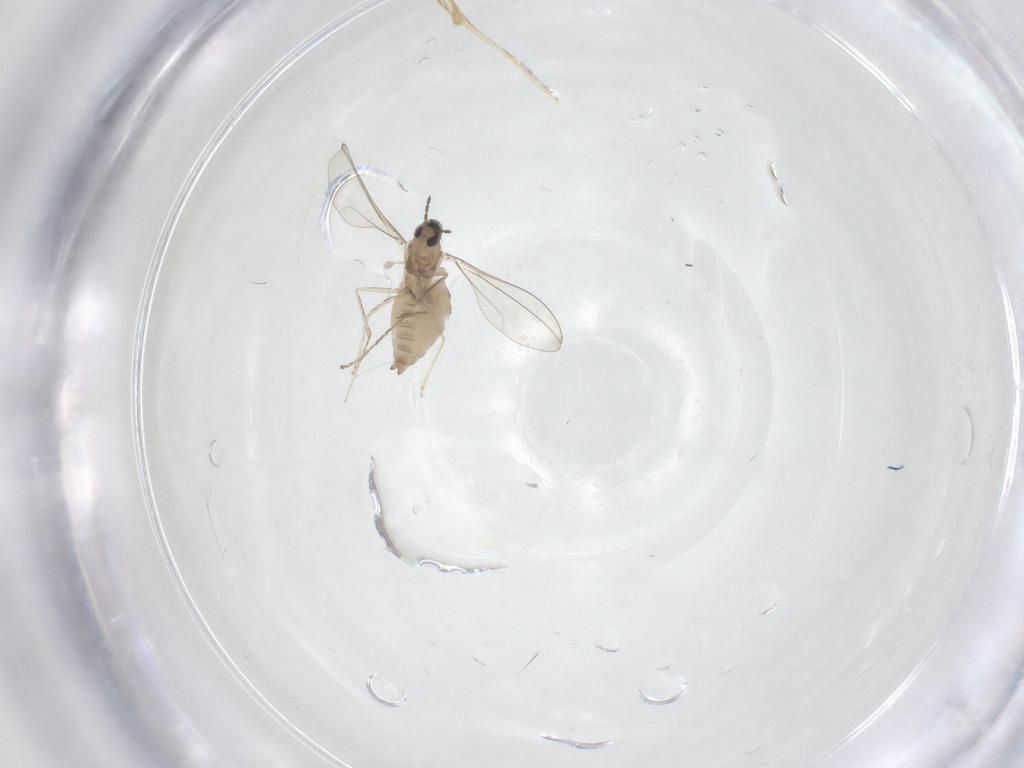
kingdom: Animalia
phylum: Arthropoda
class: Insecta
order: Diptera
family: Cecidomyiidae
